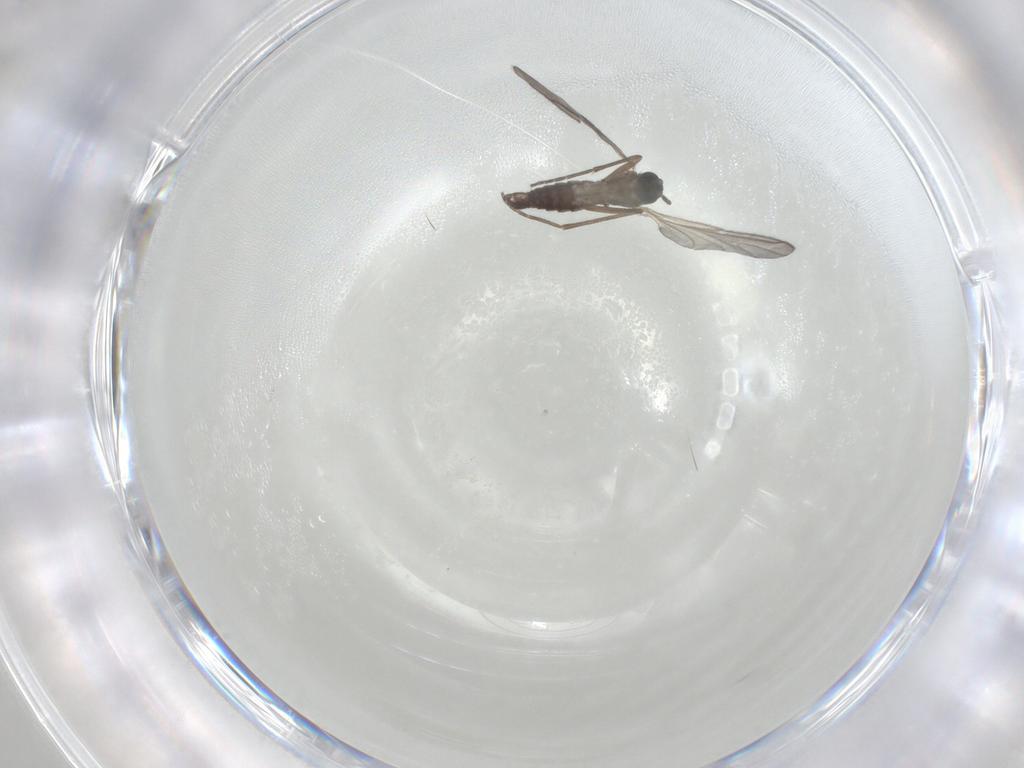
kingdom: Animalia
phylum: Arthropoda
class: Insecta
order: Diptera
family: Sciaridae
